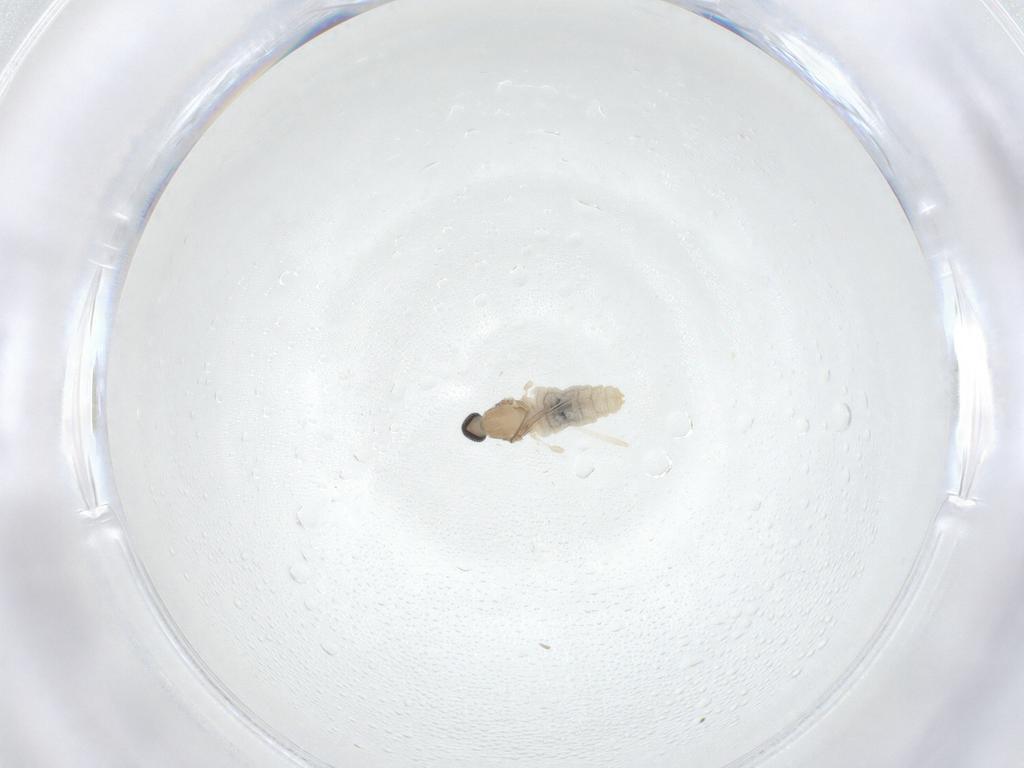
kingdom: Animalia
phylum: Arthropoda
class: Insecta
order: Diptera
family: Cecidomyiidae
